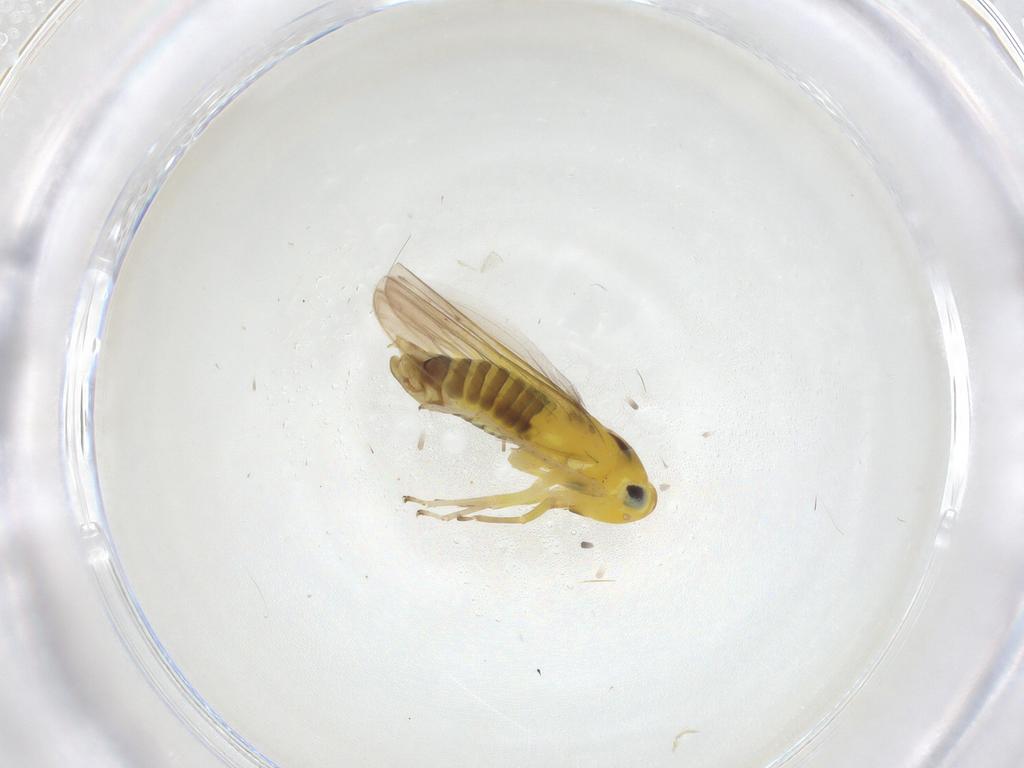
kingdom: Animalia
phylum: Arthropoda
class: Insecta
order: Hemiptera
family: Cicadellidae
